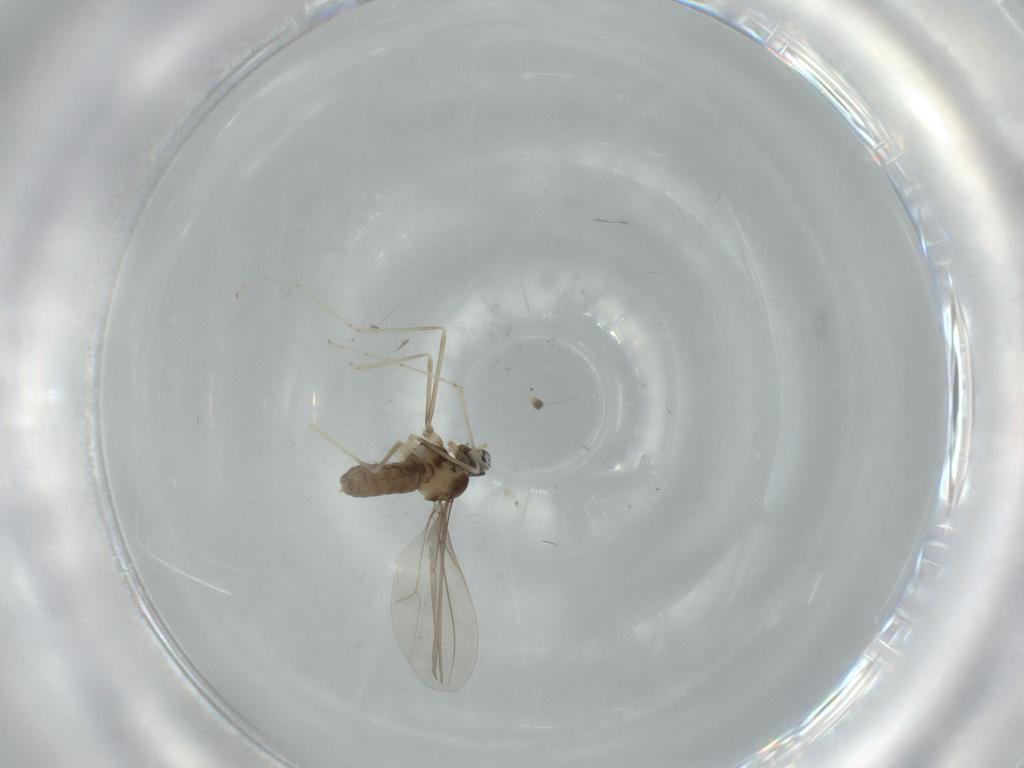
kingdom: Animalia
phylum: Arthropoda
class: Insecta
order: Diptera
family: Cecidomyiidae
